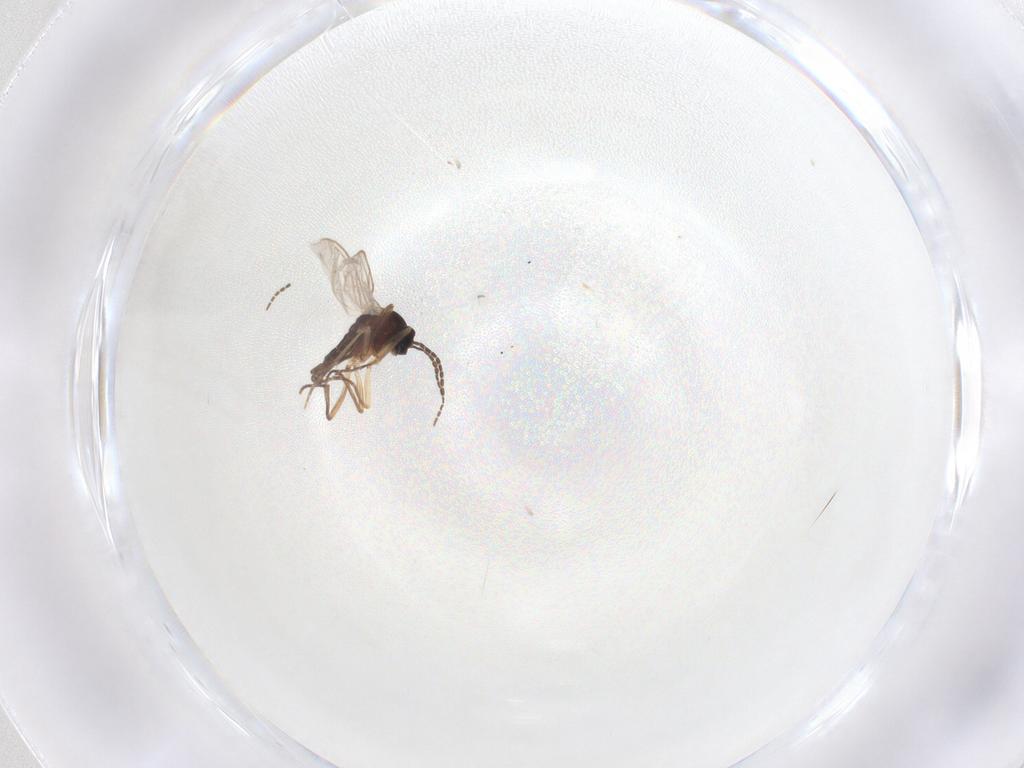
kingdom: Animalia
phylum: Arthropoda
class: Insecta
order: Diptera
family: Sciaridae
